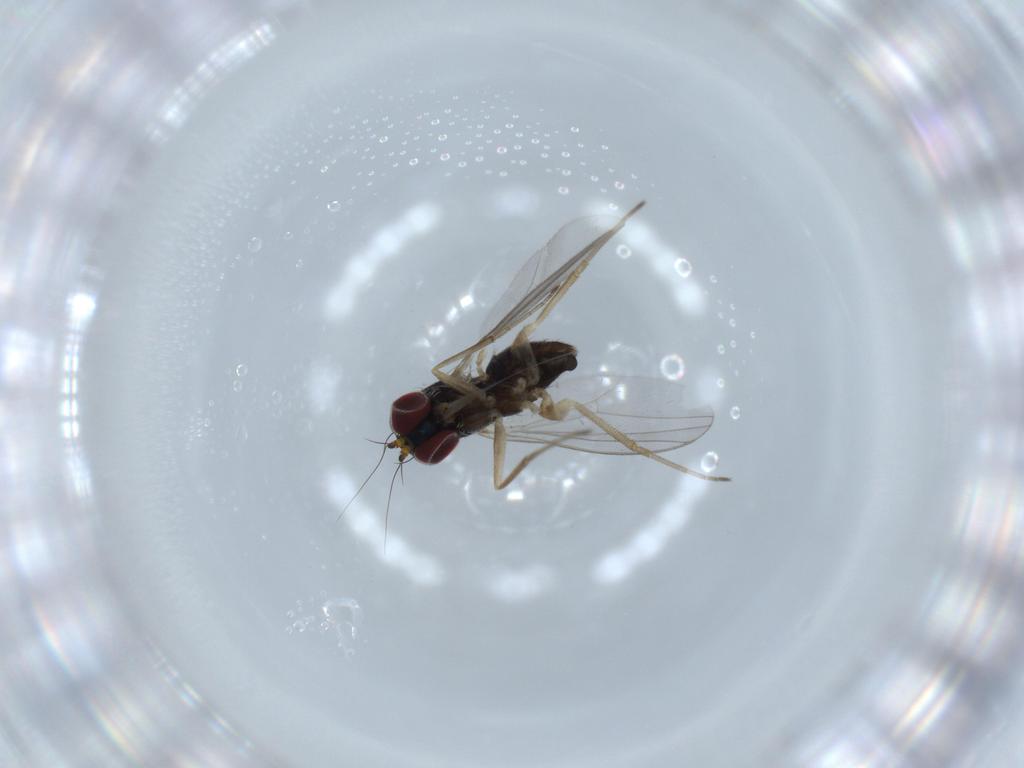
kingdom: Animalia
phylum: Arthropoda
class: Insecta
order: Diptera
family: Dolichopodidae
